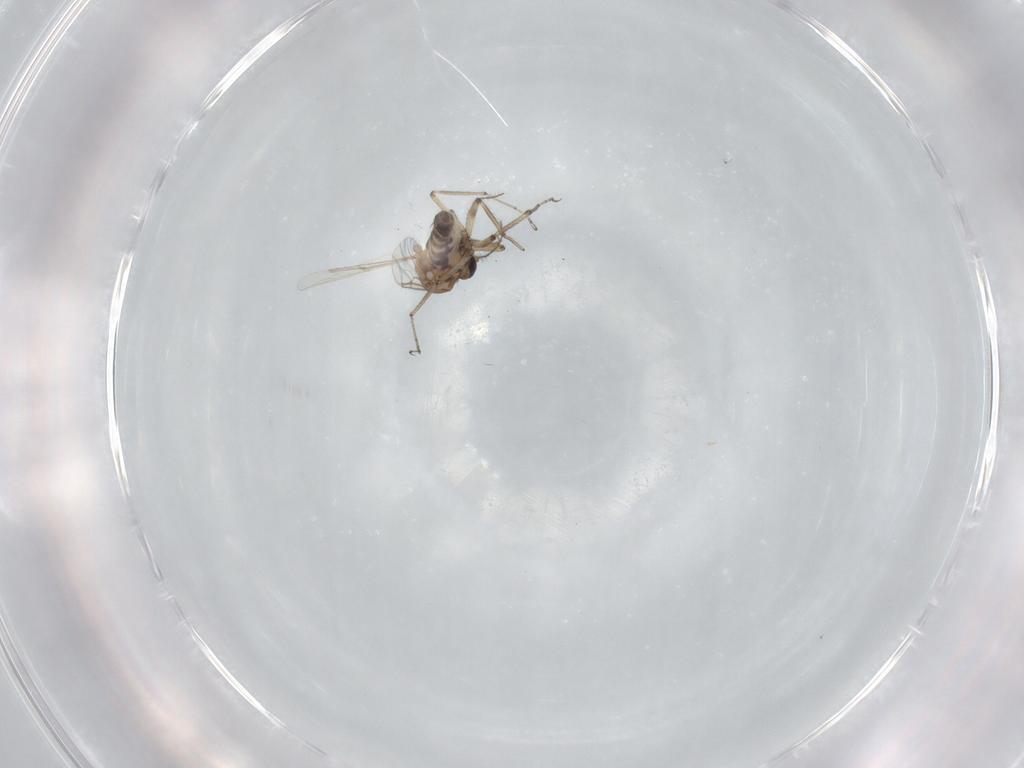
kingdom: Animalia
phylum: Arthropoda
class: Insecta
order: Diptera
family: Ceratopogonidae
